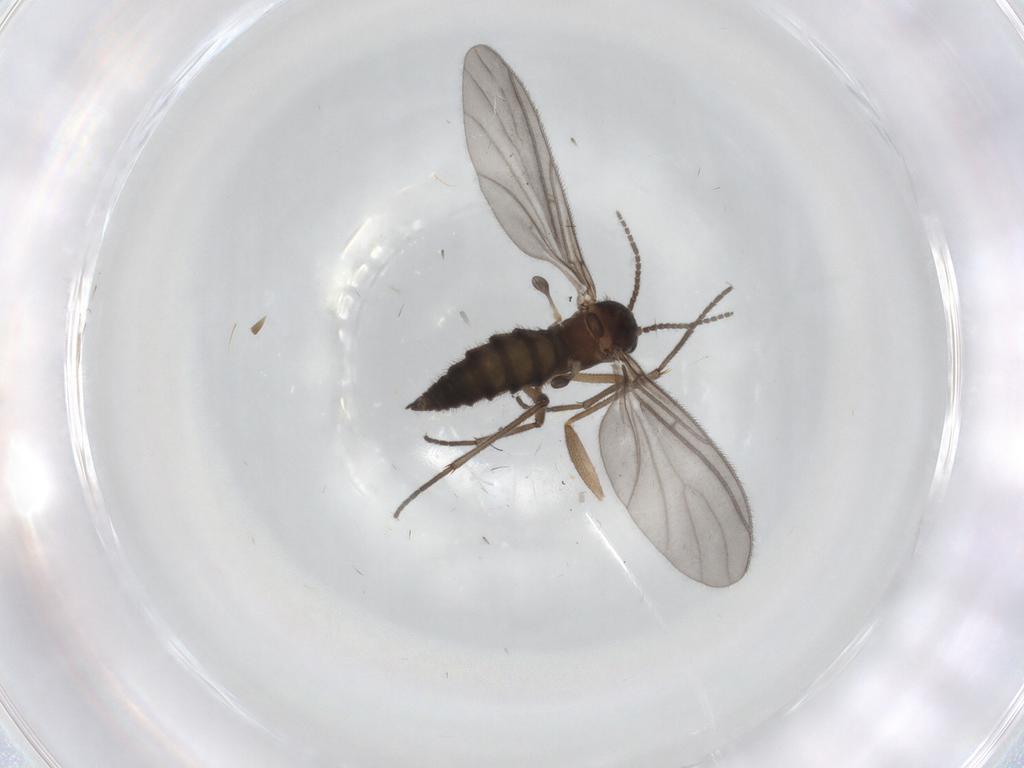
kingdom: Animalia
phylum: Arthropoda
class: Insecta
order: Diptera
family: Sciaridae
